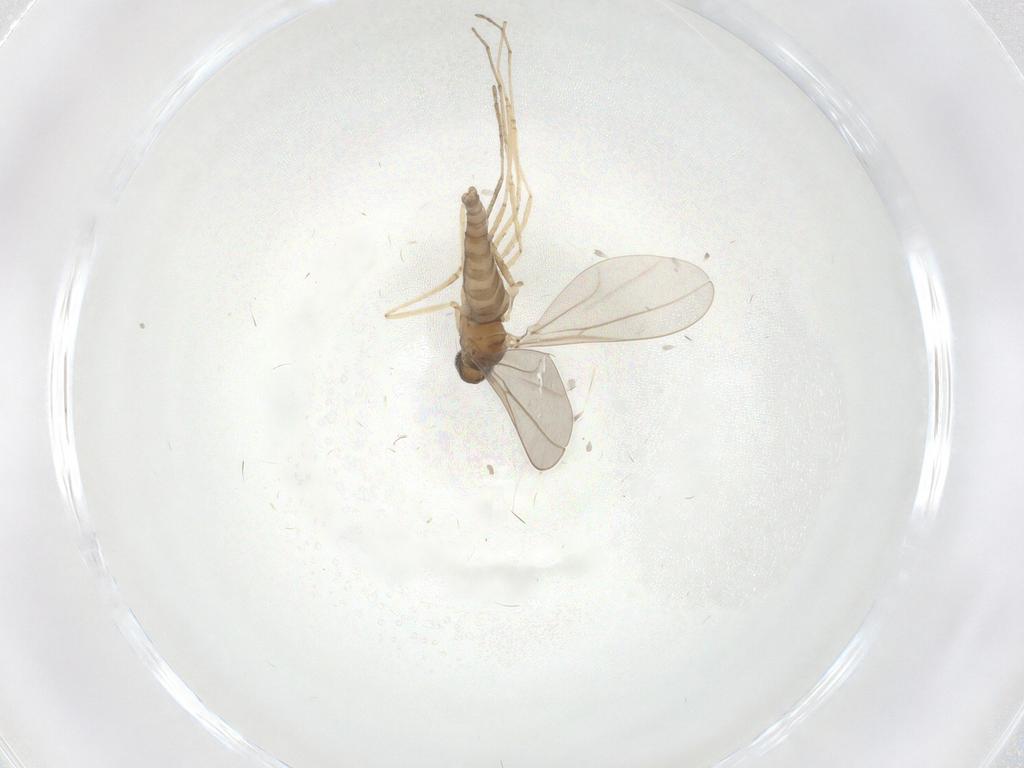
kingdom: Animalia
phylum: Arthropoda
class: Insecta
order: Diptera
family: Cecidomyiidae
